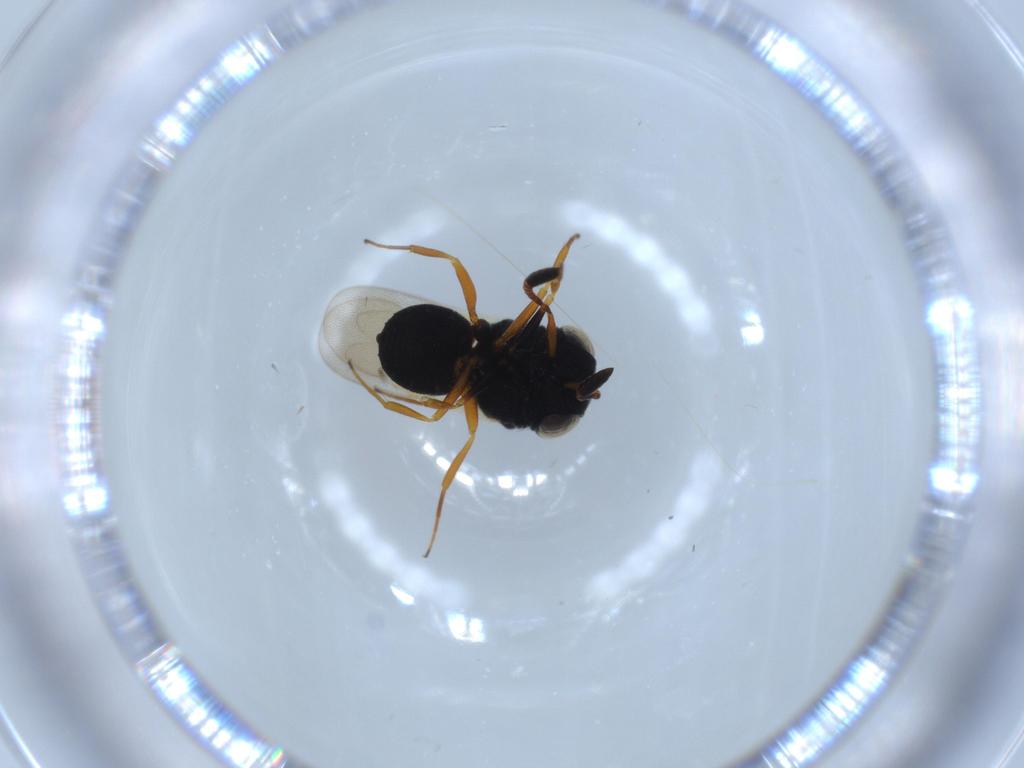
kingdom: Animalia
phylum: Arthropoda
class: Insecta
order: Hymenoptera
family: Scelionidae
